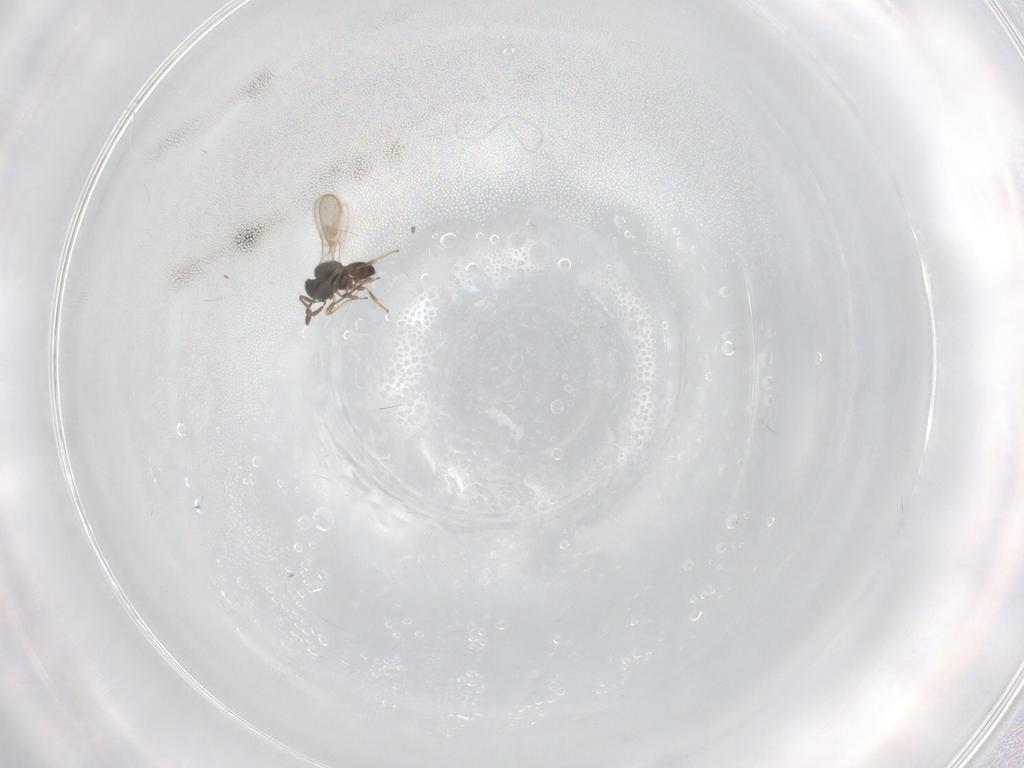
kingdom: Animalia
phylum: Arthropoda
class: Insecta
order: Hymenoptera
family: Scelionidae
